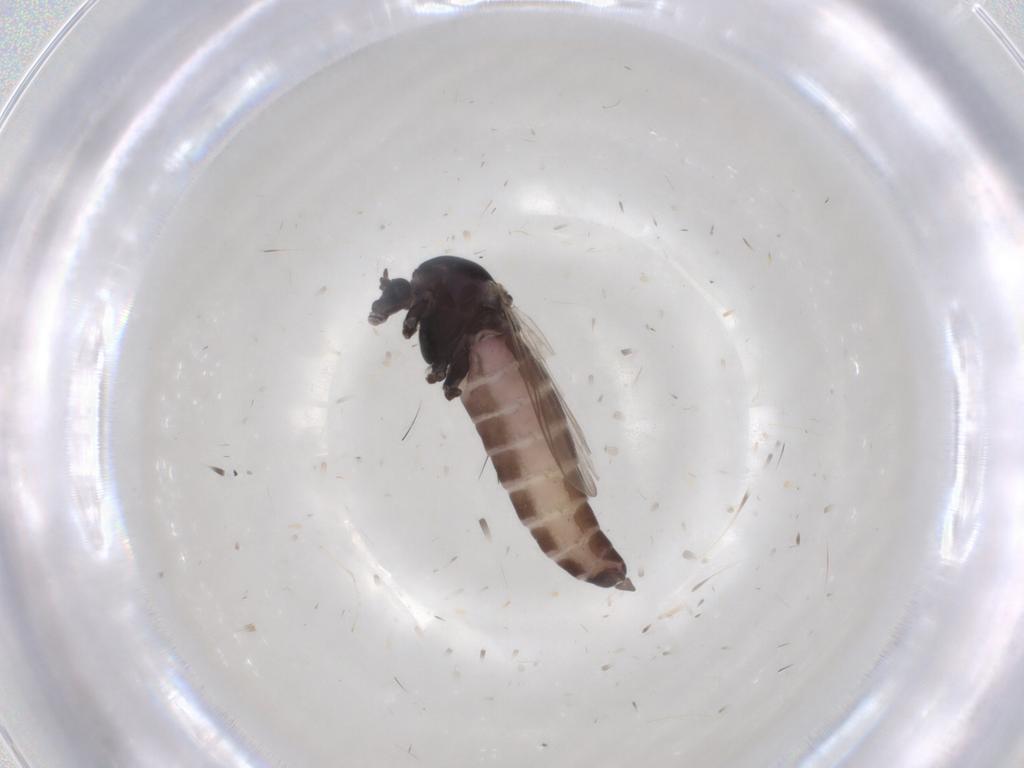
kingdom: Animalia
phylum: Arthropoda
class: Insecta
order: Diptera
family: Chironomidae
